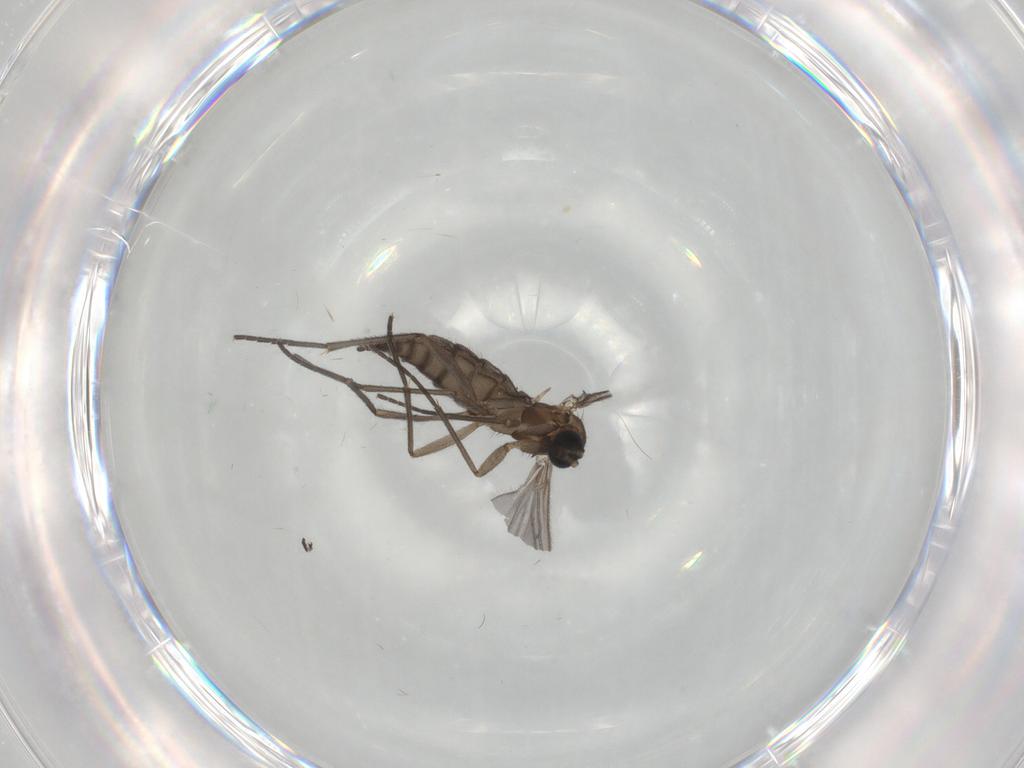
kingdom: Animalia
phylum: Arthropoda
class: Insecta
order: Diptera
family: Sciaridae
